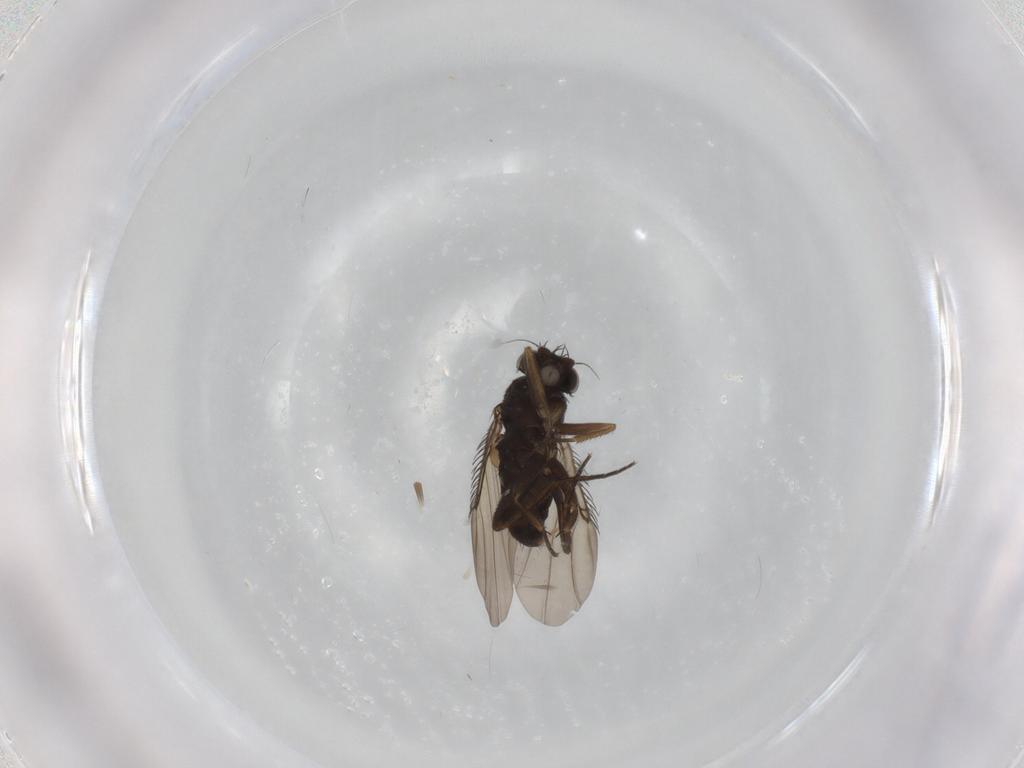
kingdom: Animalia
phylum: Arthropoda
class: Insecta
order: Diptera
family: Phoridae
